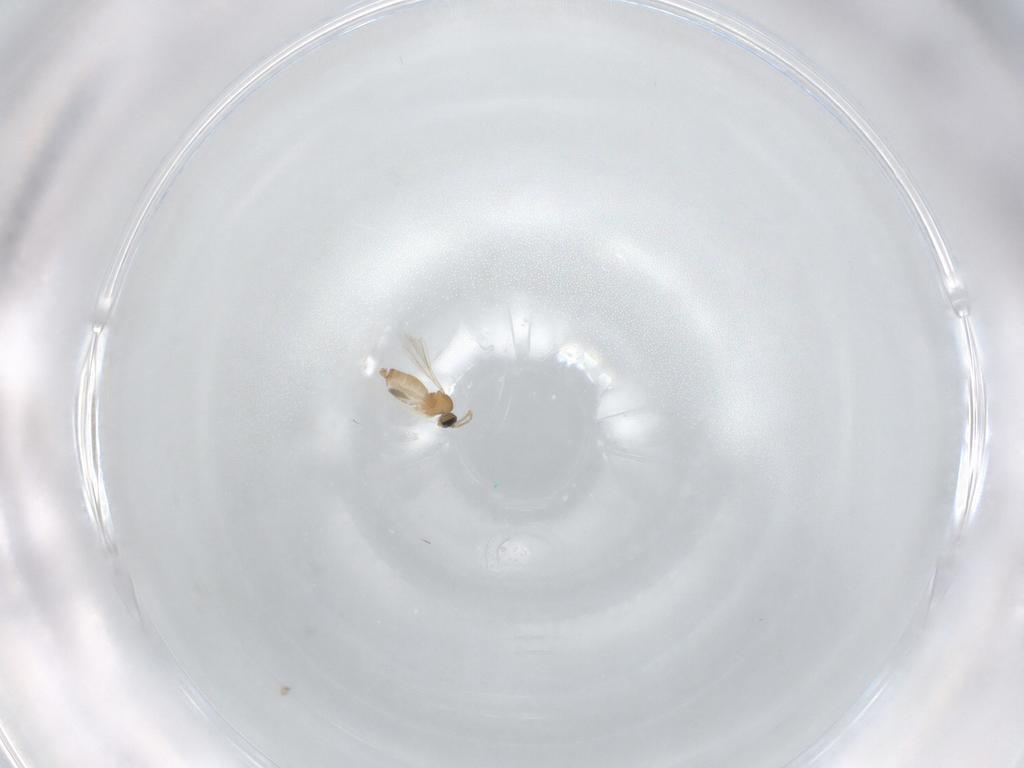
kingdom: Animalia
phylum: Arthropoda
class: Insecta
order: Diptera
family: Cecidomyiidae
